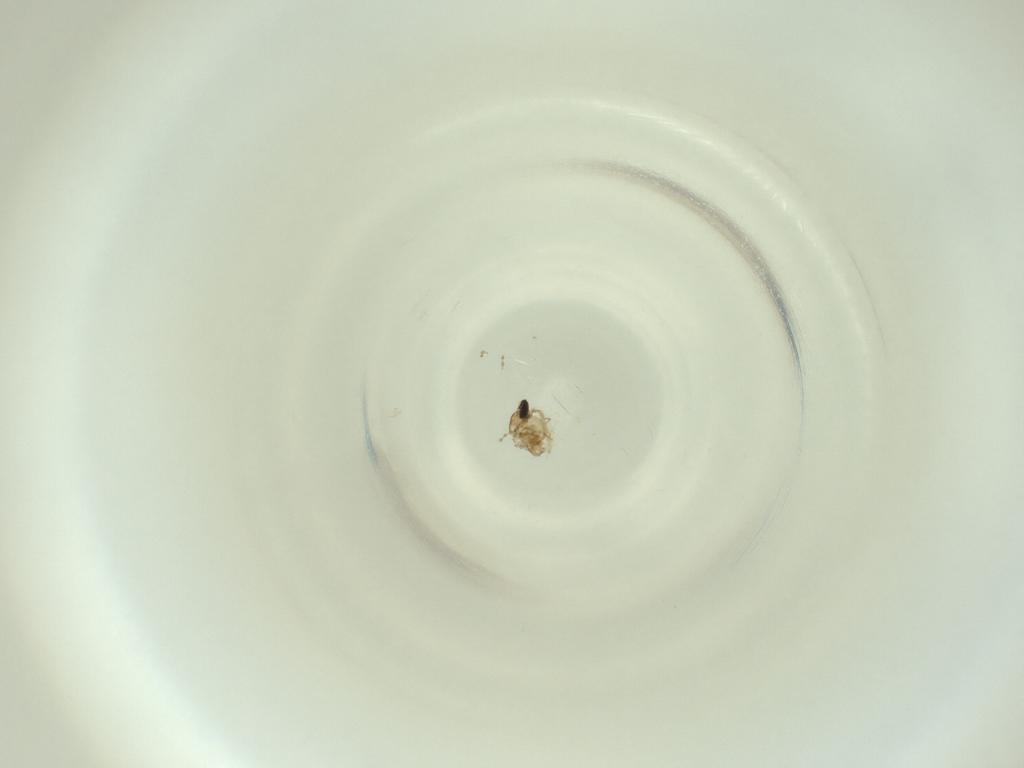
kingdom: Animalia
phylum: Arthropoda
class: Insecta
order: Diptera
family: Cecidomyiidae
